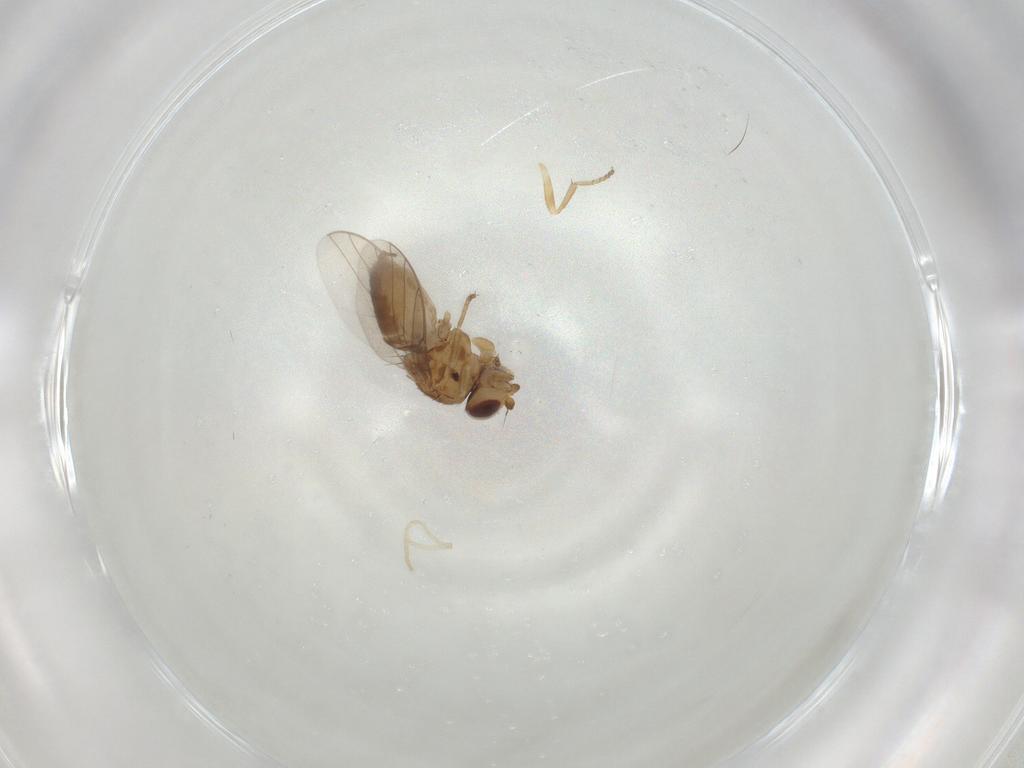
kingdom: Animalia
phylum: Arthropoda
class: Insecta
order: Diptera
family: Chloropidae
